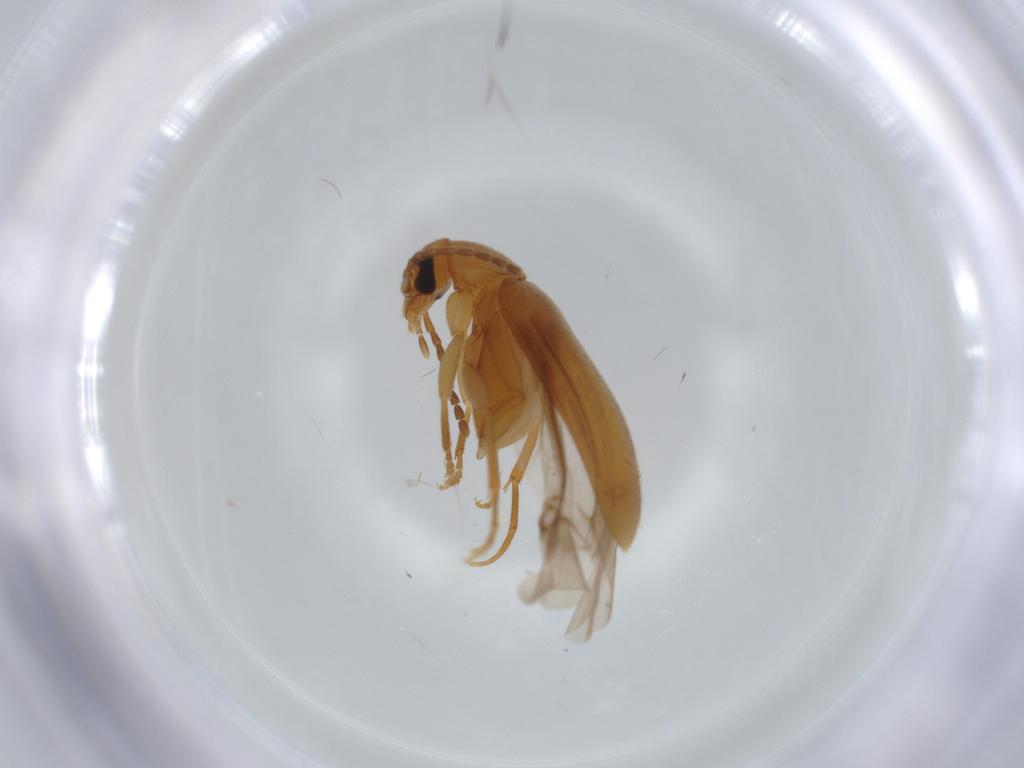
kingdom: Animalia
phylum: Arthropoda
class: Insecta
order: Coleoptera
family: Scraptiidae
